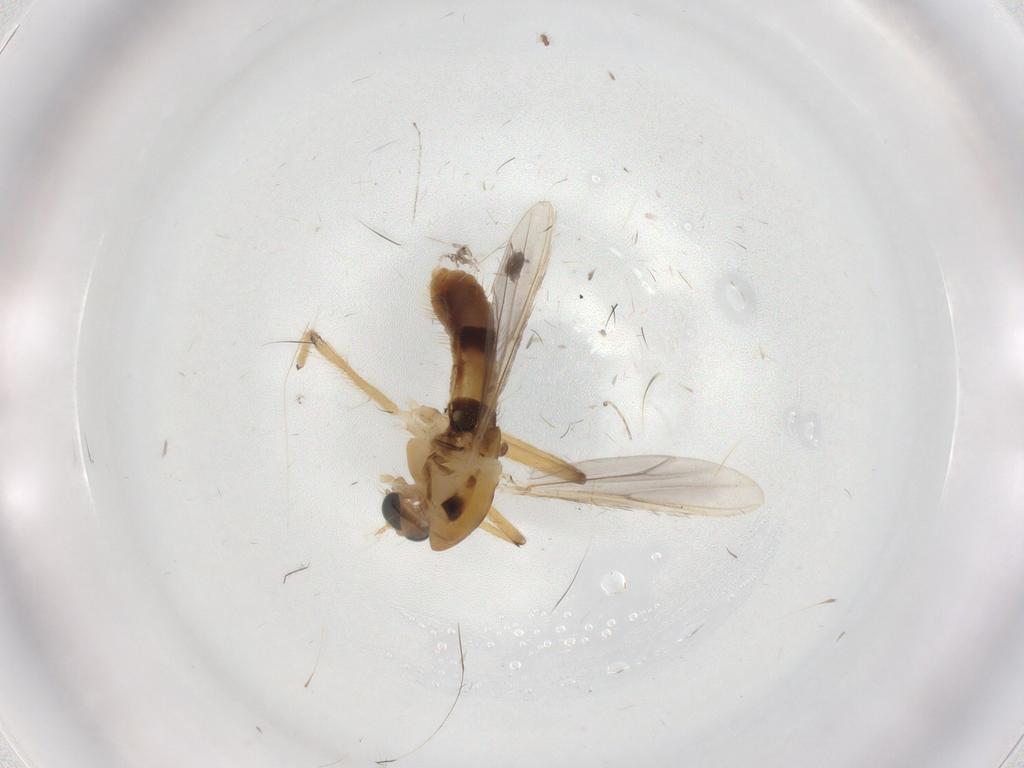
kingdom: Animalia
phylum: Arthropoda
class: Insecta
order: Diptera
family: Chironomidae
